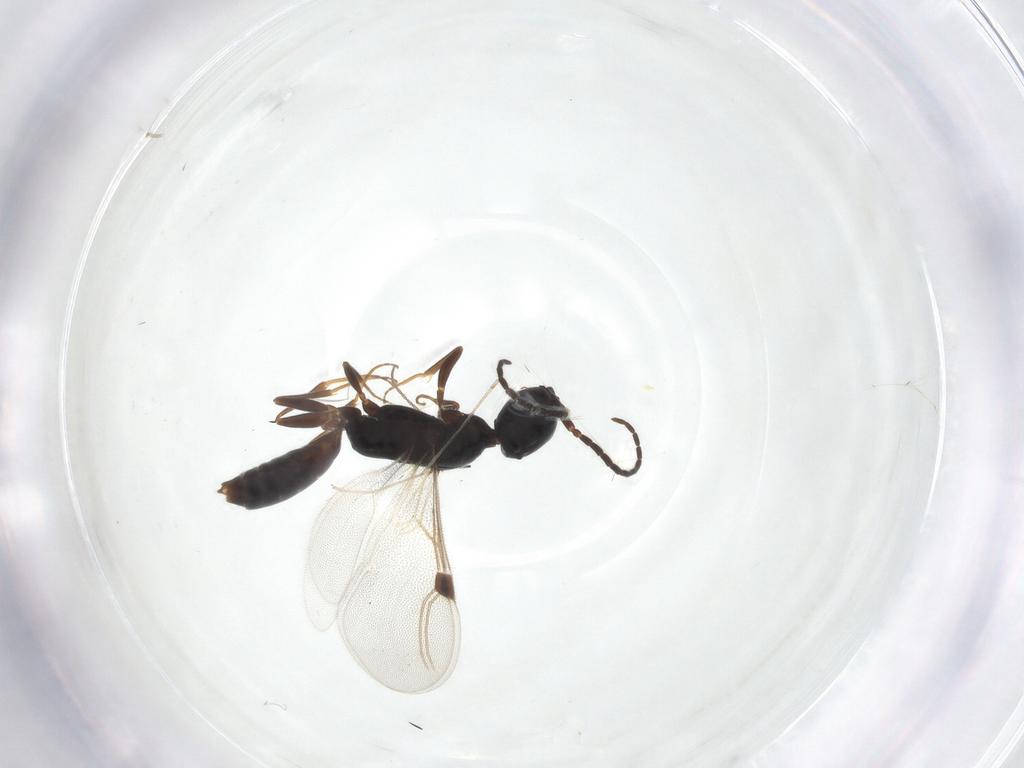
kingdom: Animalia
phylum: Arthropoda
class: Insecta
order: Hymenoptera
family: Bethylidae
